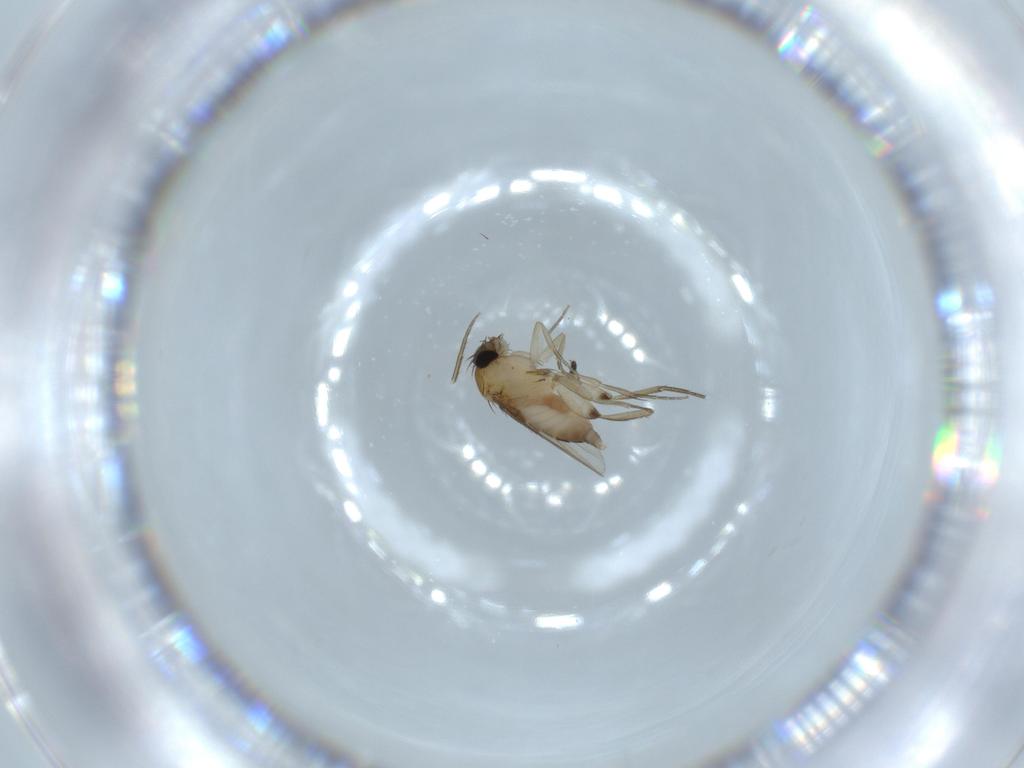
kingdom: Animalia
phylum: Arthropoda
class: Insecta
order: Diptera
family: Phoridae
